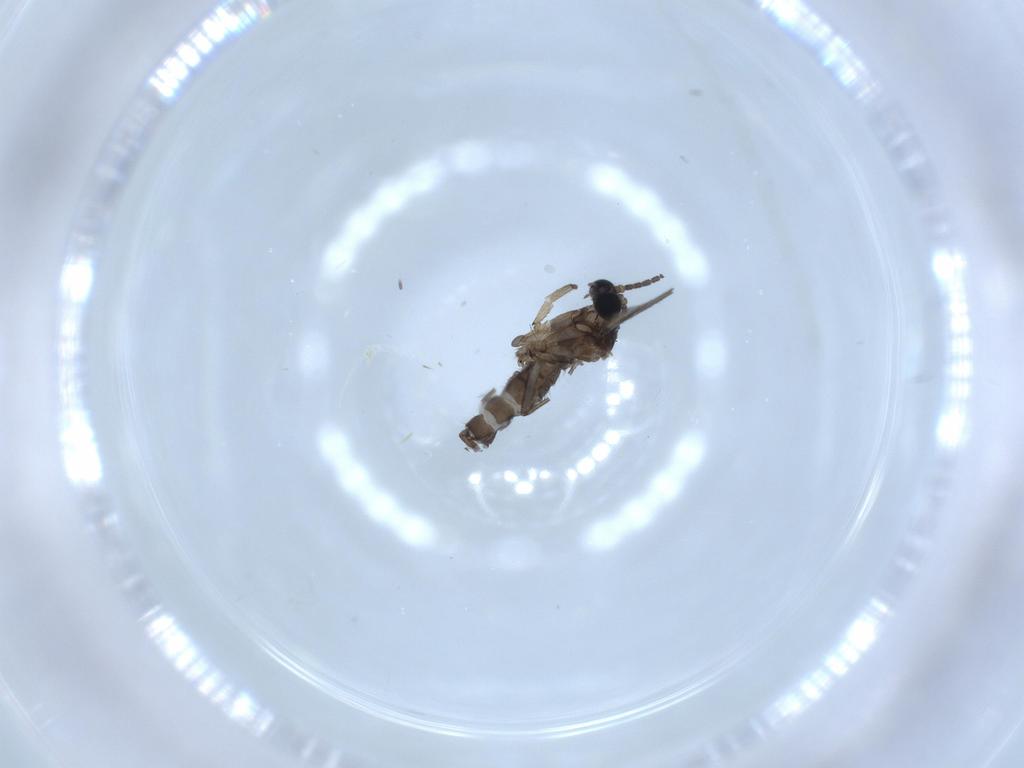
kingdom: Animalia
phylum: Arthropoda
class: Insecta
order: Diptera
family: Sciaridae
